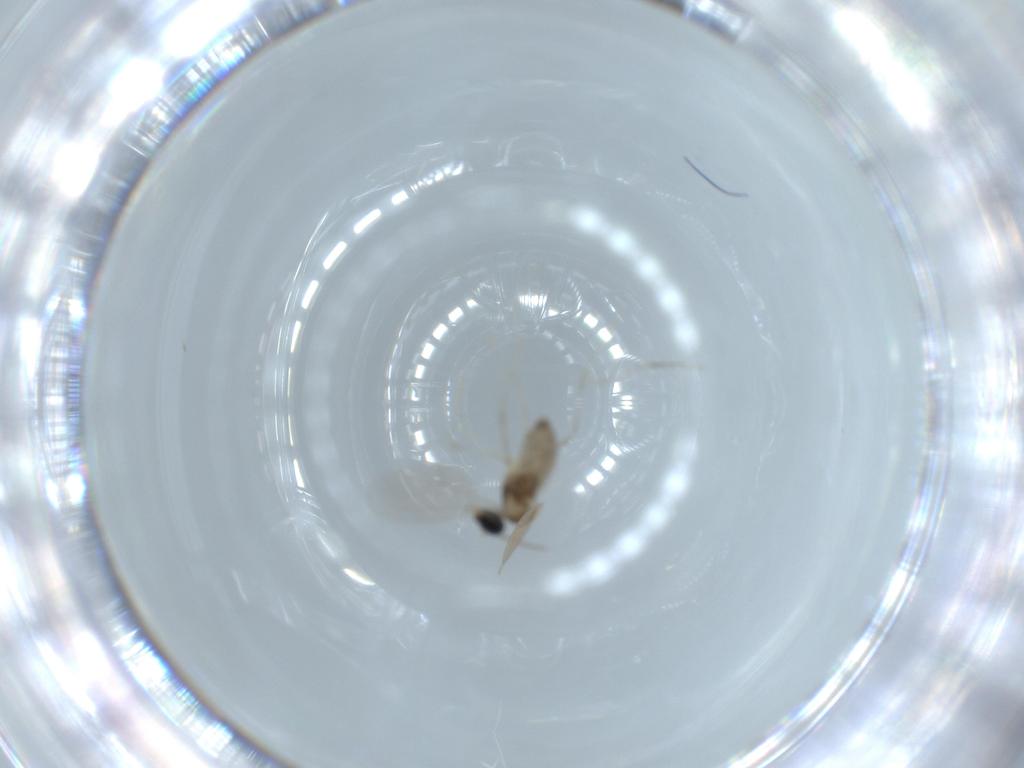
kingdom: Animalia
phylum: Arthropoda
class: Insecta
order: Diptera
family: Cecidomyiidae
